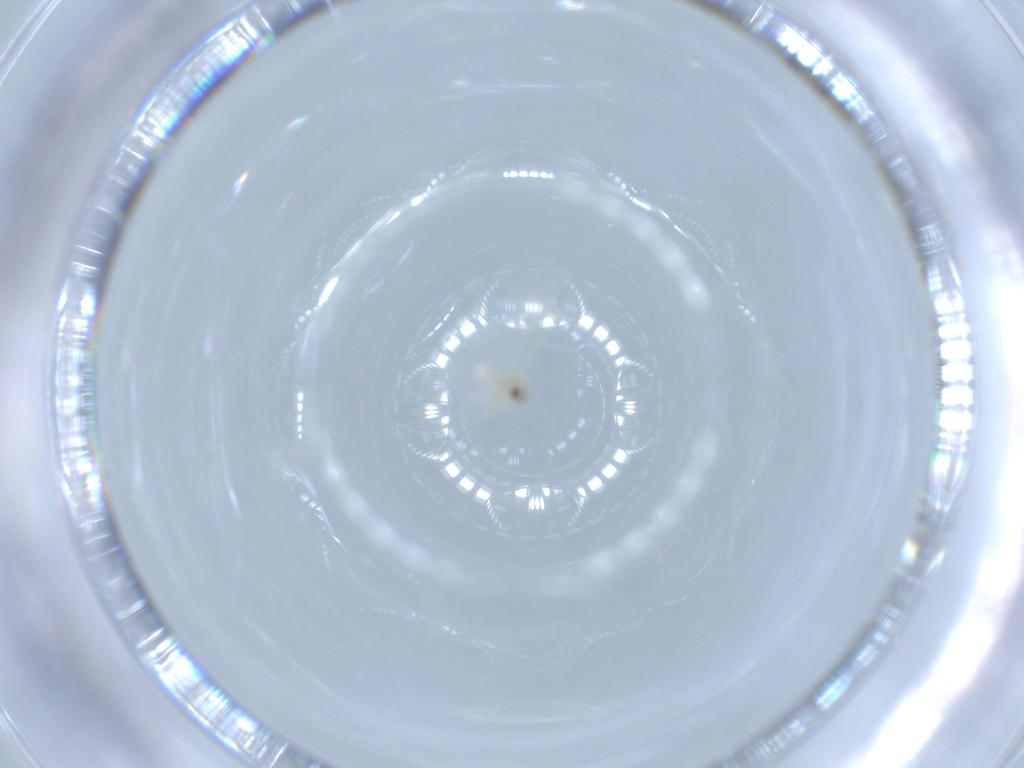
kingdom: Animalia
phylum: Arthropoda
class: Insecta
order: Hemiptera
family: Aleyrodidae
